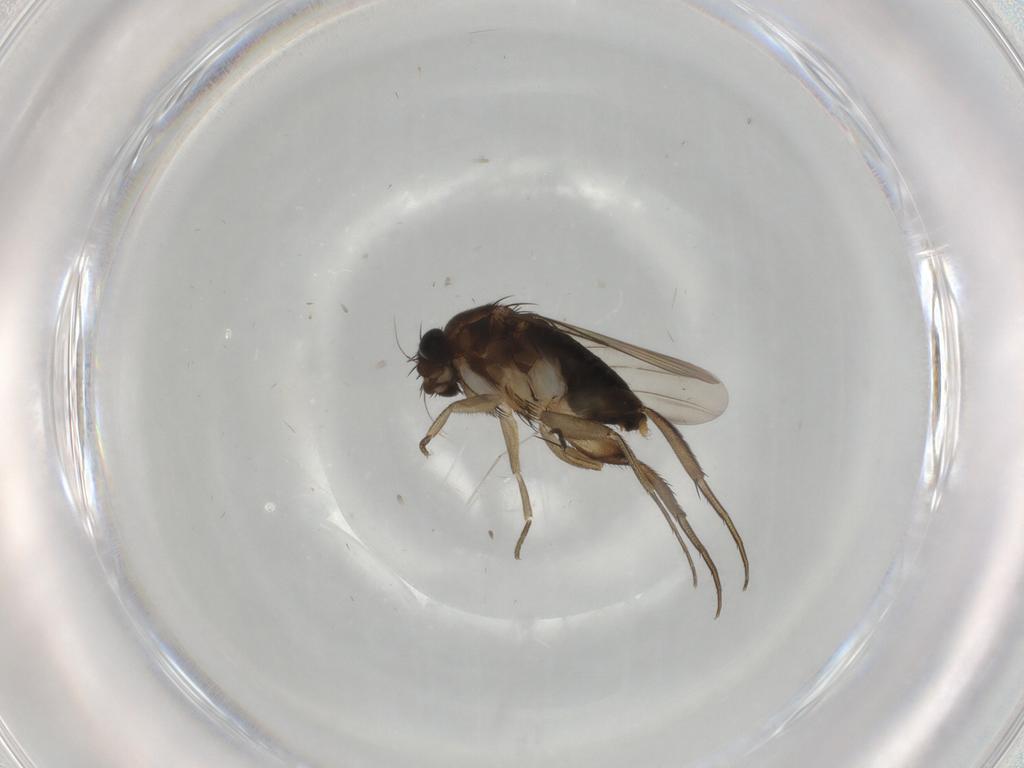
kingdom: Animalia
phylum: Arthropoda
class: Insecta
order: Diptera
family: Phoridae
